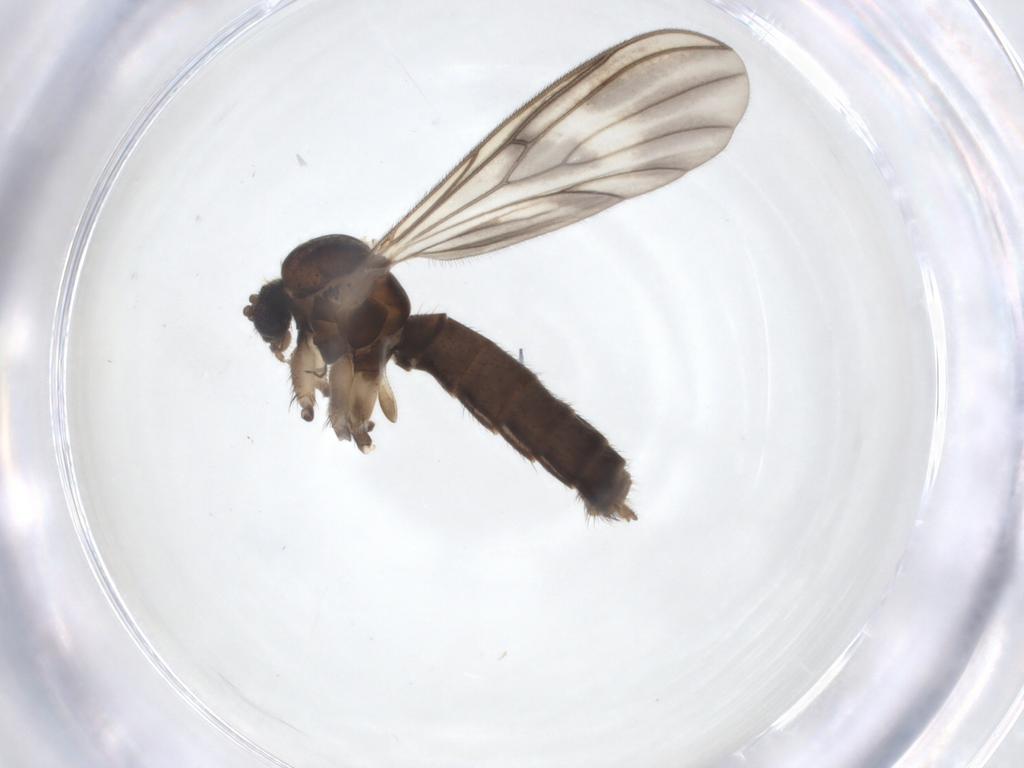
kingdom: Animalia
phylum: Arthropoda
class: Insecta
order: Diptera
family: Mycetophilidae
